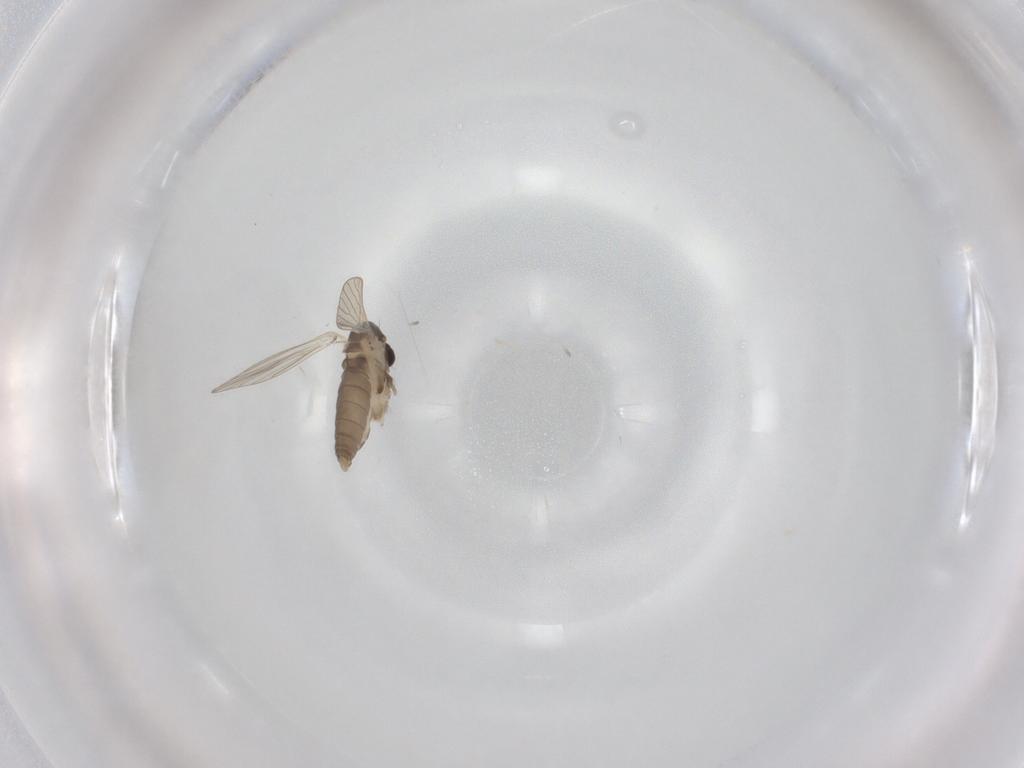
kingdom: Animalia
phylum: Arthropoda
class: Insecta
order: Diptera
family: Psychodidae
